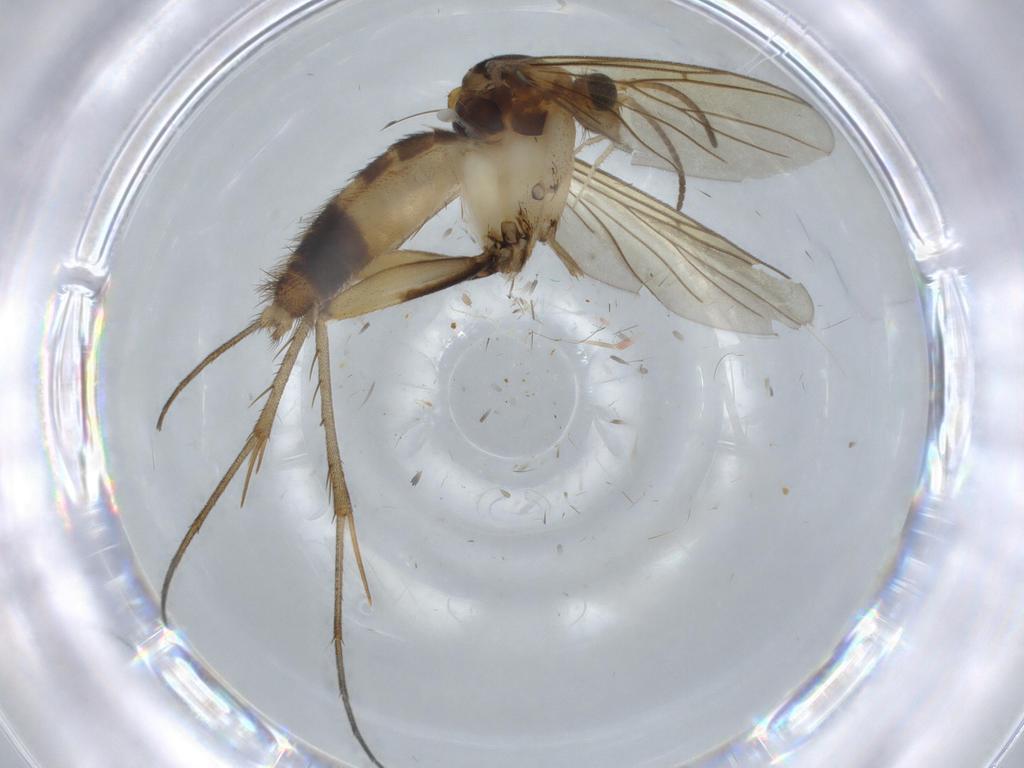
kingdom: Animalia
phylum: Arthropoda
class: Insecta
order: Diptera
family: Mycetophilidae
